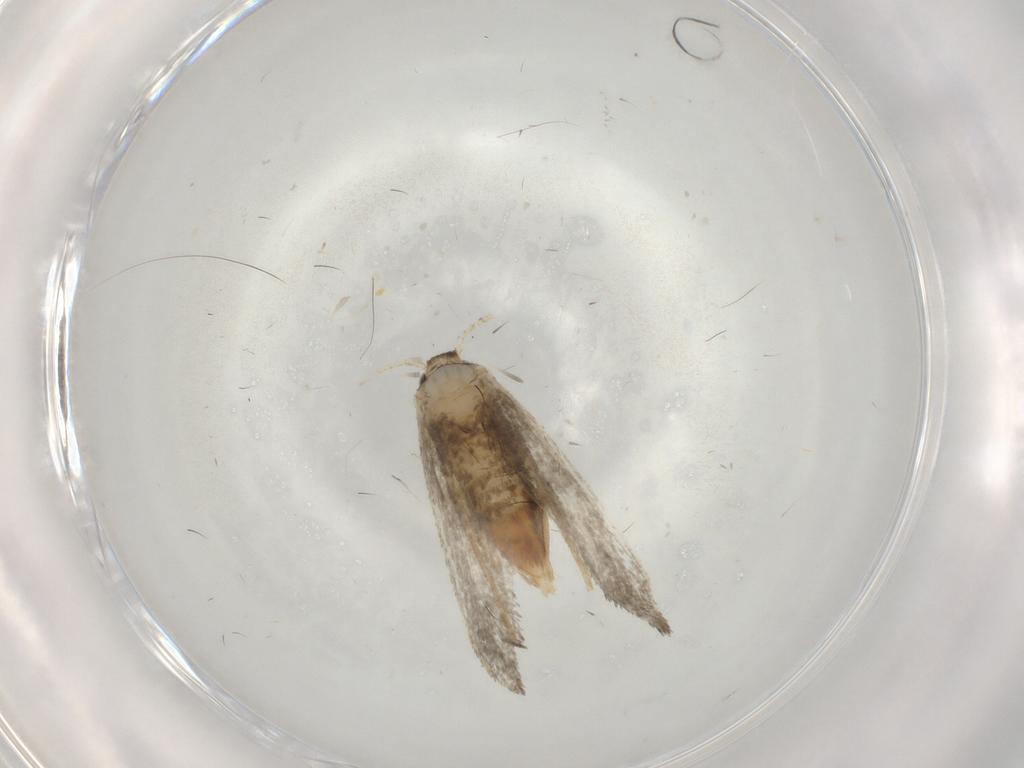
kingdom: Animalia
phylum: Arthropoda
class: Insecta
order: Lepidoptera
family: Psychidae
